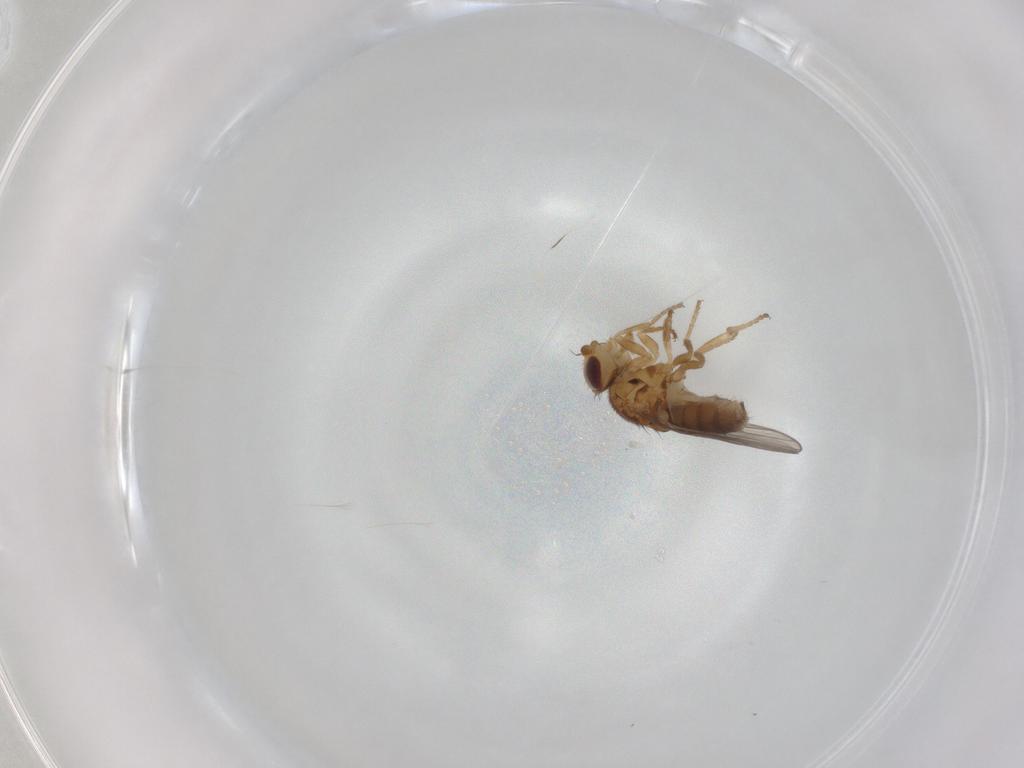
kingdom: Animalia
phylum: Arthropoda
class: Insecta
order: Diptera
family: Chloropidae
